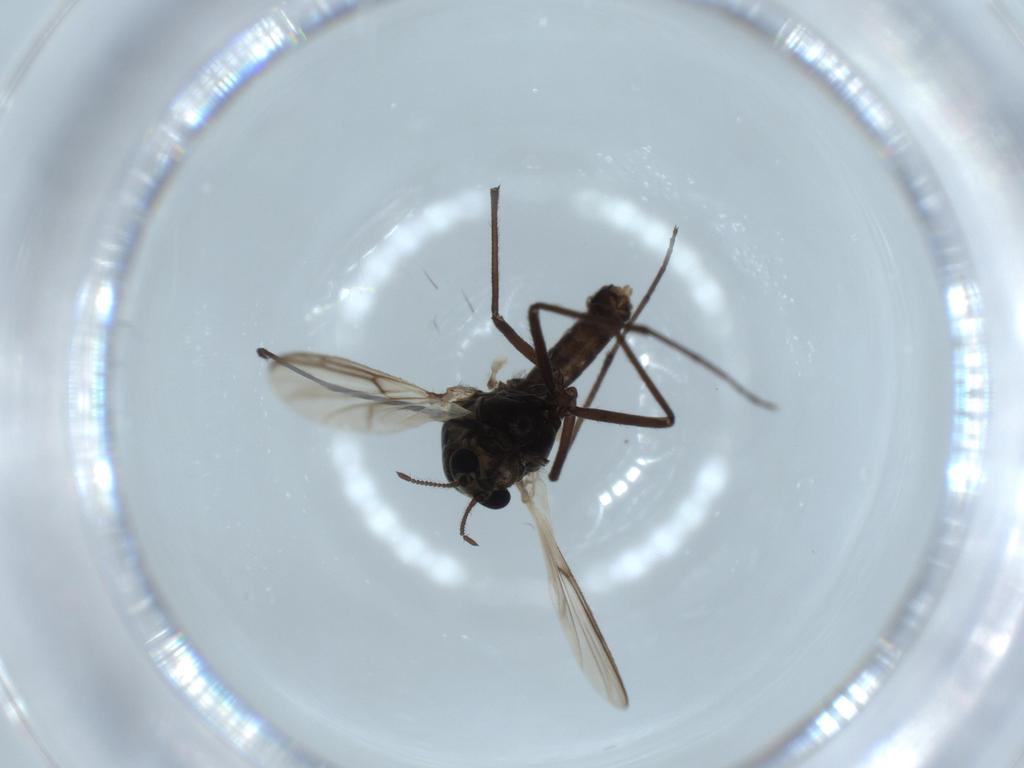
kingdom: Animalia
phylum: Arthropoda
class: Insecta
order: Diptera
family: Chironomidae
